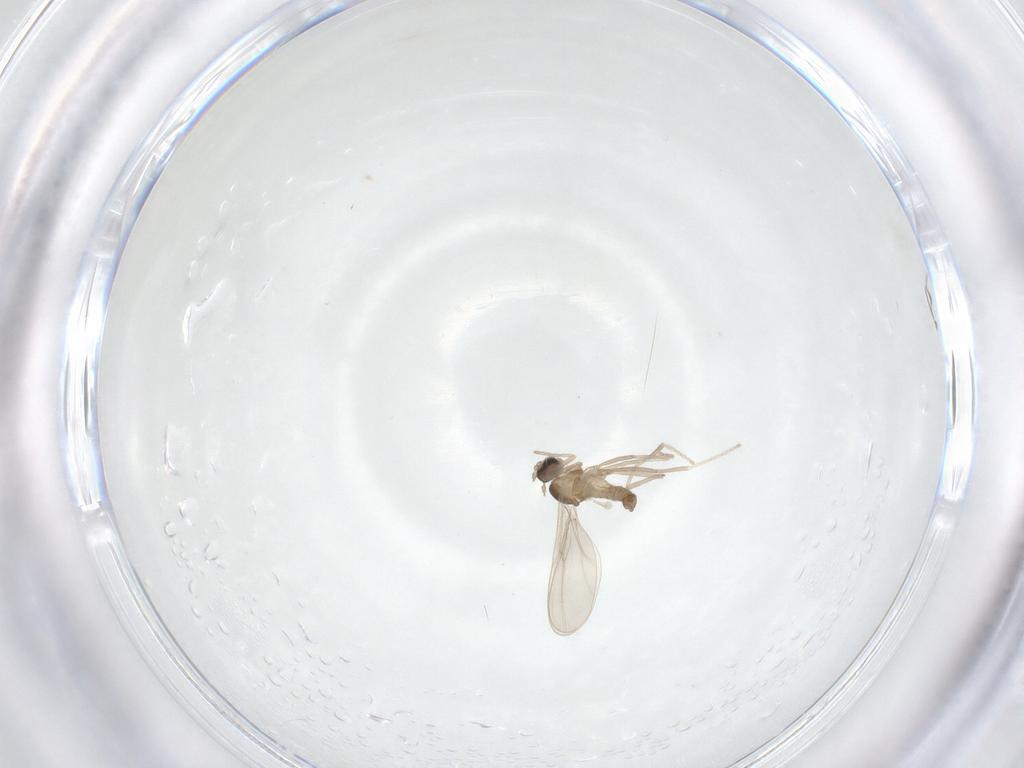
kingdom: Animalia
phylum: Arthropoda
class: Insecta
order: Diptera
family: Cecidomyiidae
